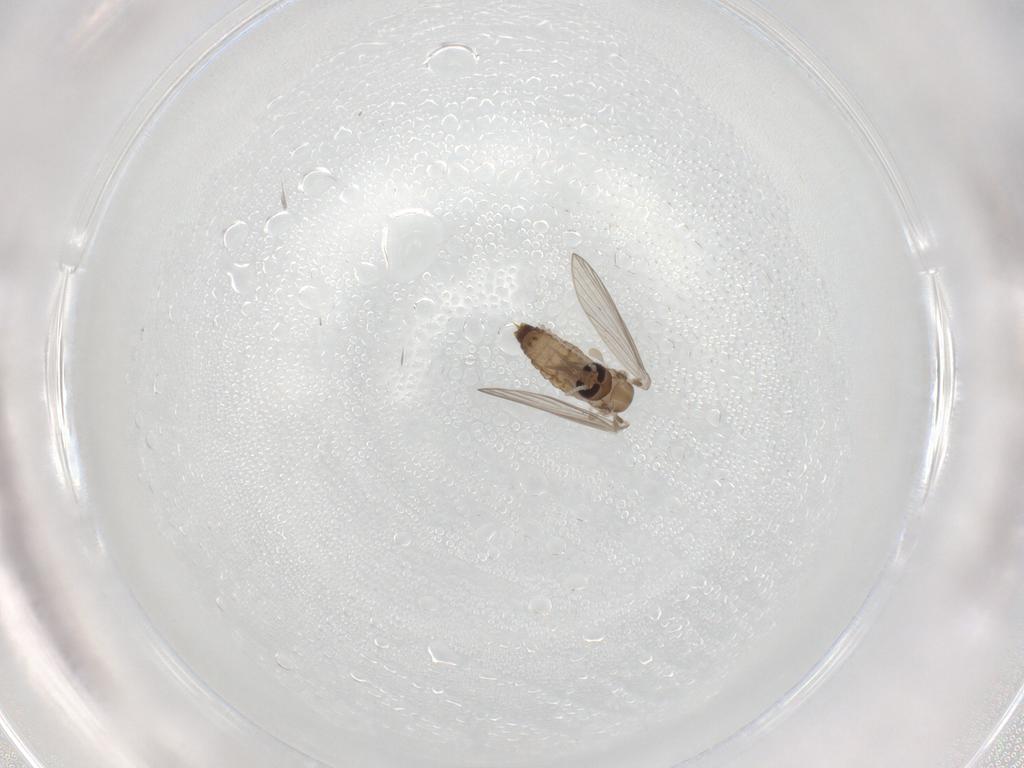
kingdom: Animalia
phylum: Arthropoda
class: Insecta
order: Diptera
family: Phoridae
